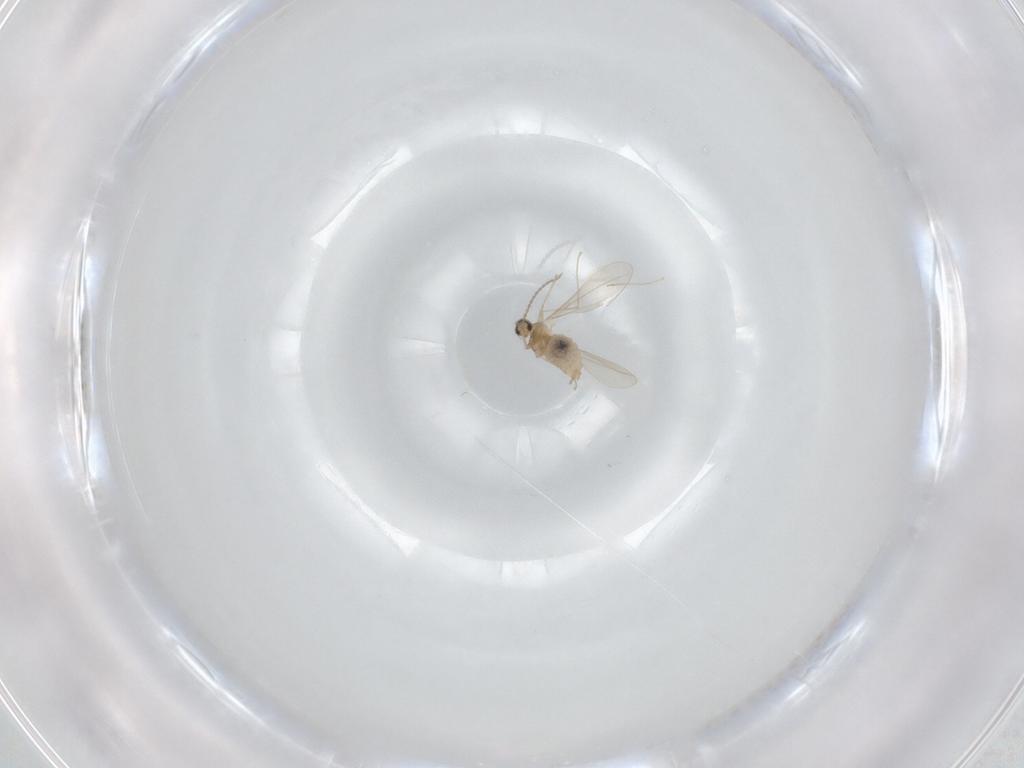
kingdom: Animalia
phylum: Arthropoda
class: Insecta
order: Diptera
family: Cecidomyiidae
